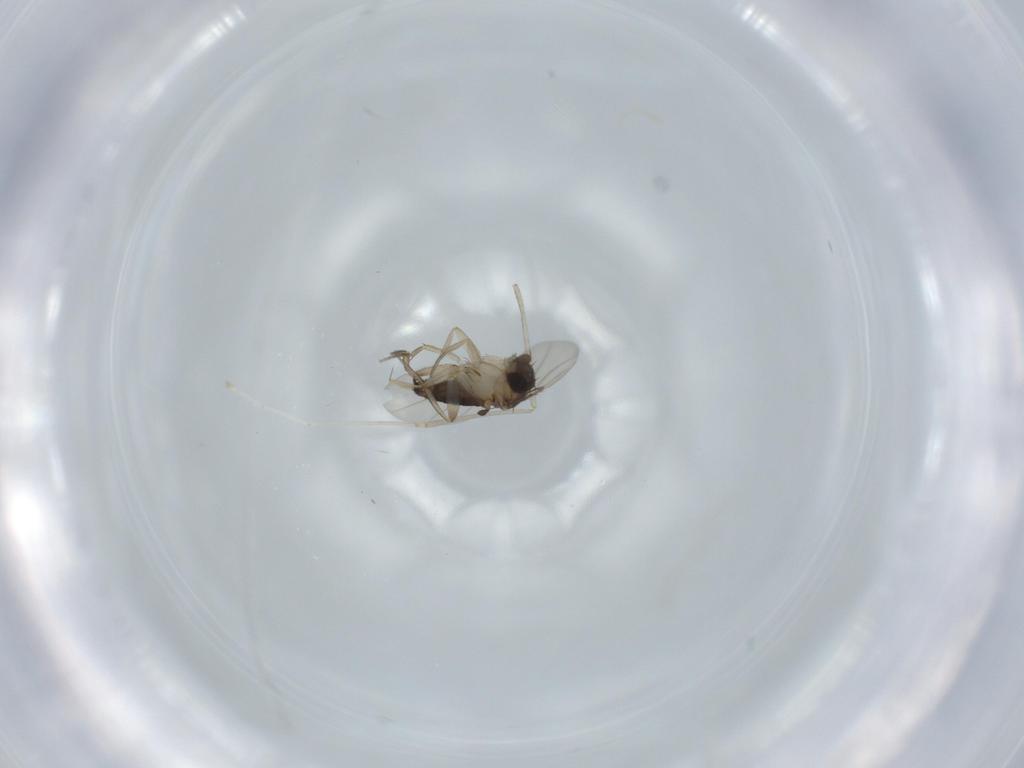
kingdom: Animalia
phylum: Arthropoda
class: Insecta
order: Diptera
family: Phoridae
